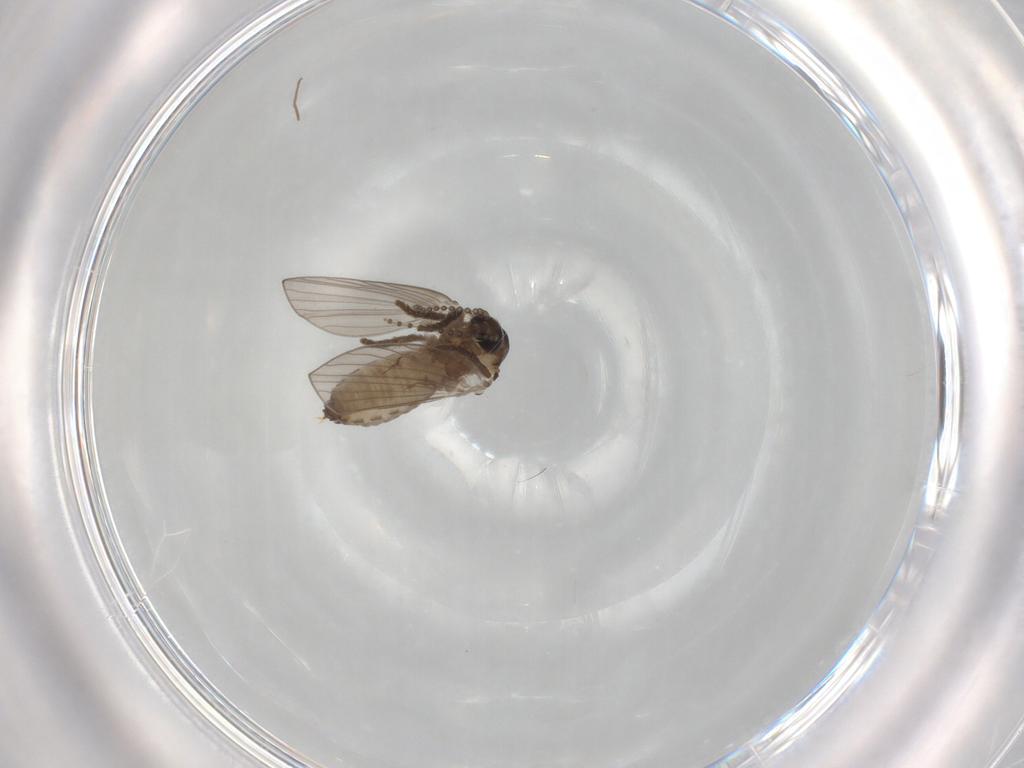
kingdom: Animalia
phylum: Arthropoda
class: Insecta
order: Diptera
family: Psychodidae
